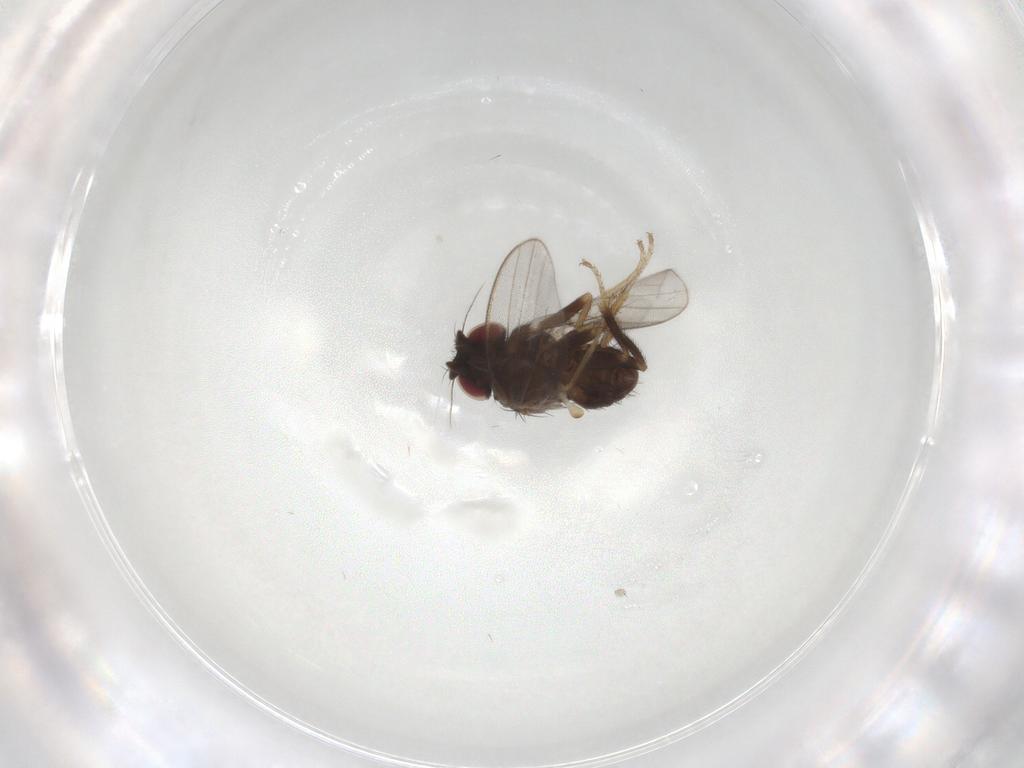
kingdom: Animalia
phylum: Arthropoda
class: Insecta
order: Diptera
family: Milichiidae
